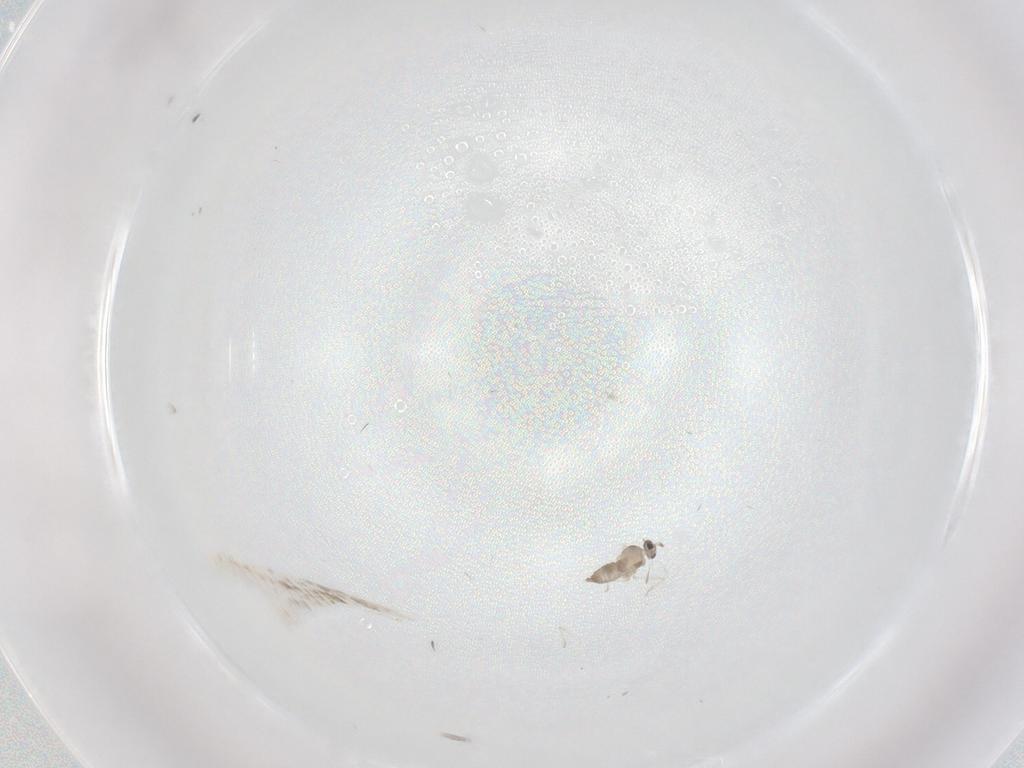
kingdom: Animalia
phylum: Arthropoda
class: Insecta
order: Diptera
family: Cecidomyiidae
